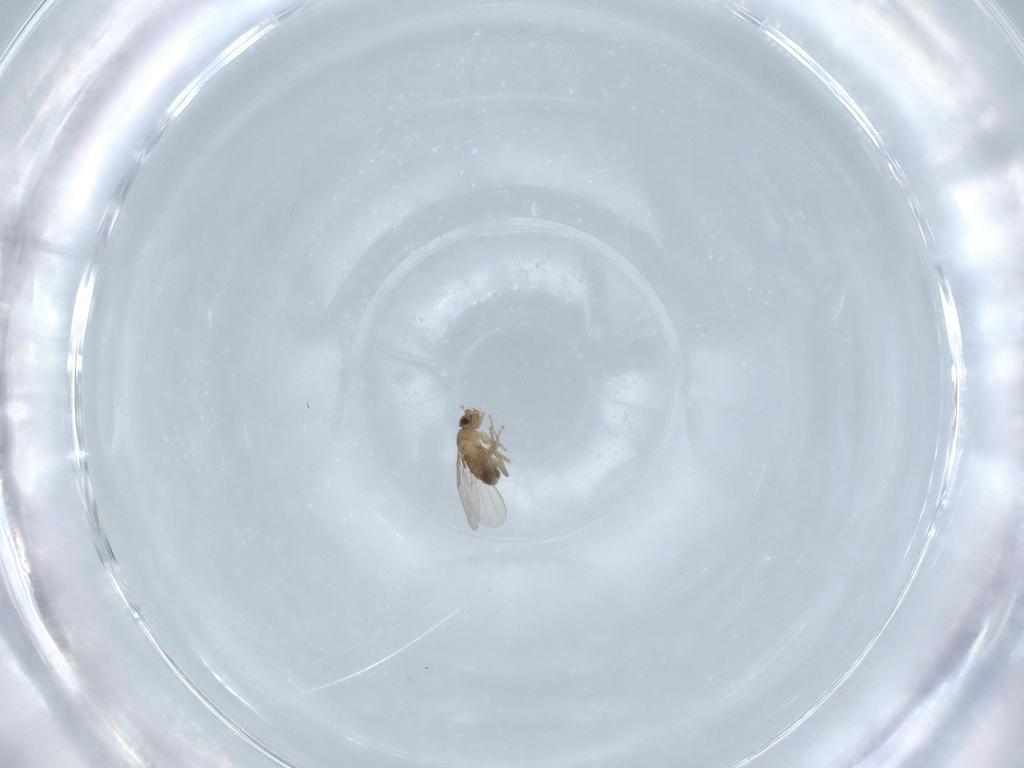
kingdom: Animalia
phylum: Arthropoda
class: Insecta
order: Diptera
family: Phoridae
